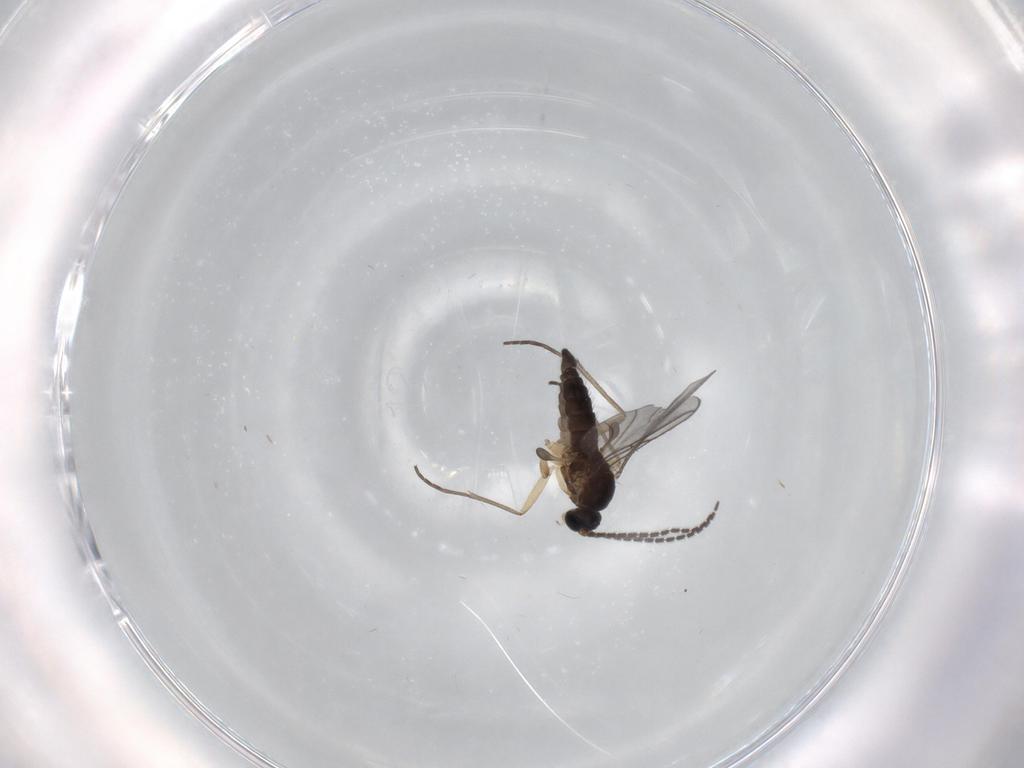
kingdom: Animalia
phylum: Arthropoda
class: Insecta
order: Diptera
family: Sciaridae
